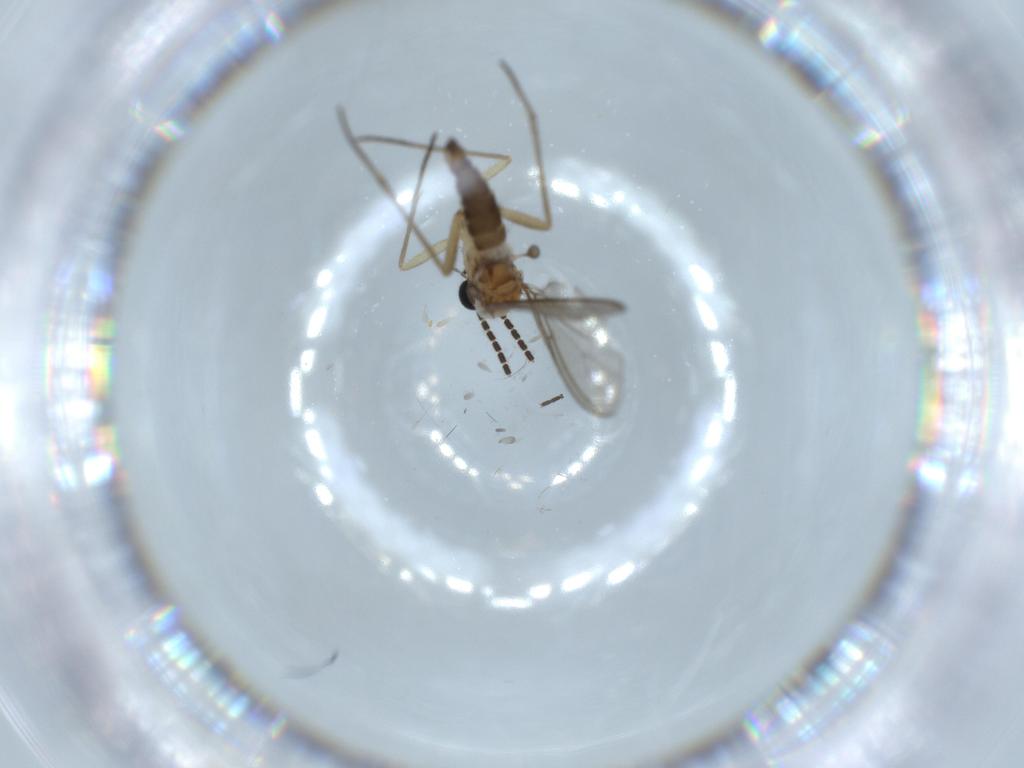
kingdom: Animalia
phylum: Arthropoda
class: Insecta
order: Diptera
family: Sciaridae
